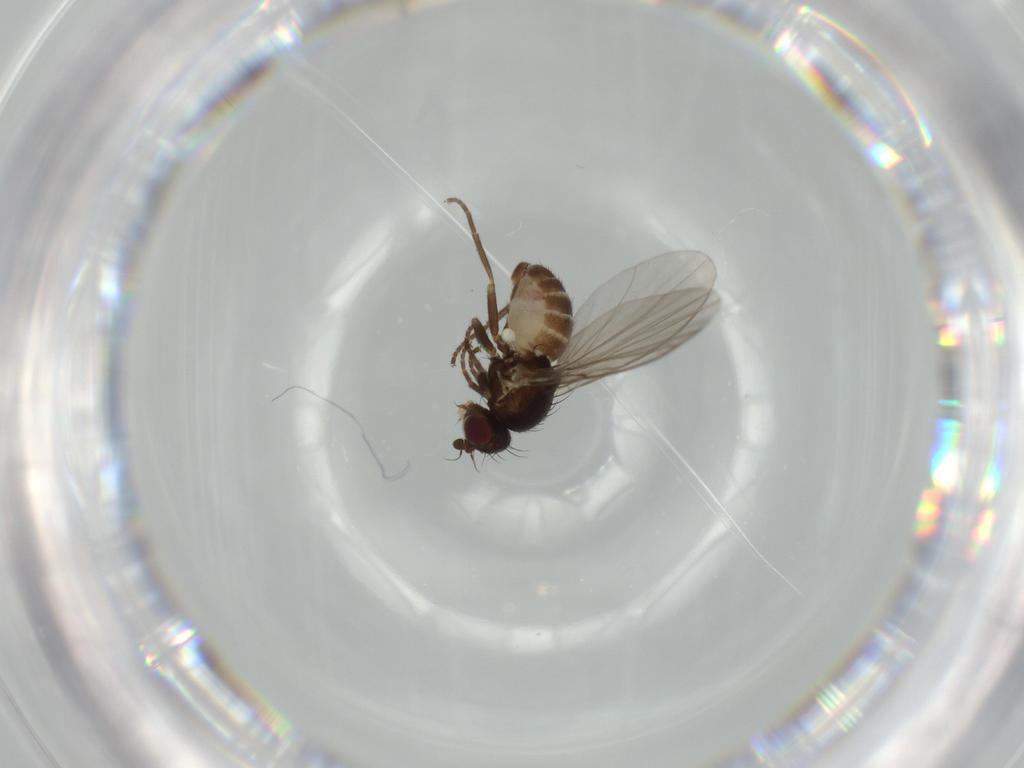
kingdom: Animalia
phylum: Arthropoda
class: Insecta
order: Diptera
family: Agromyzidae
